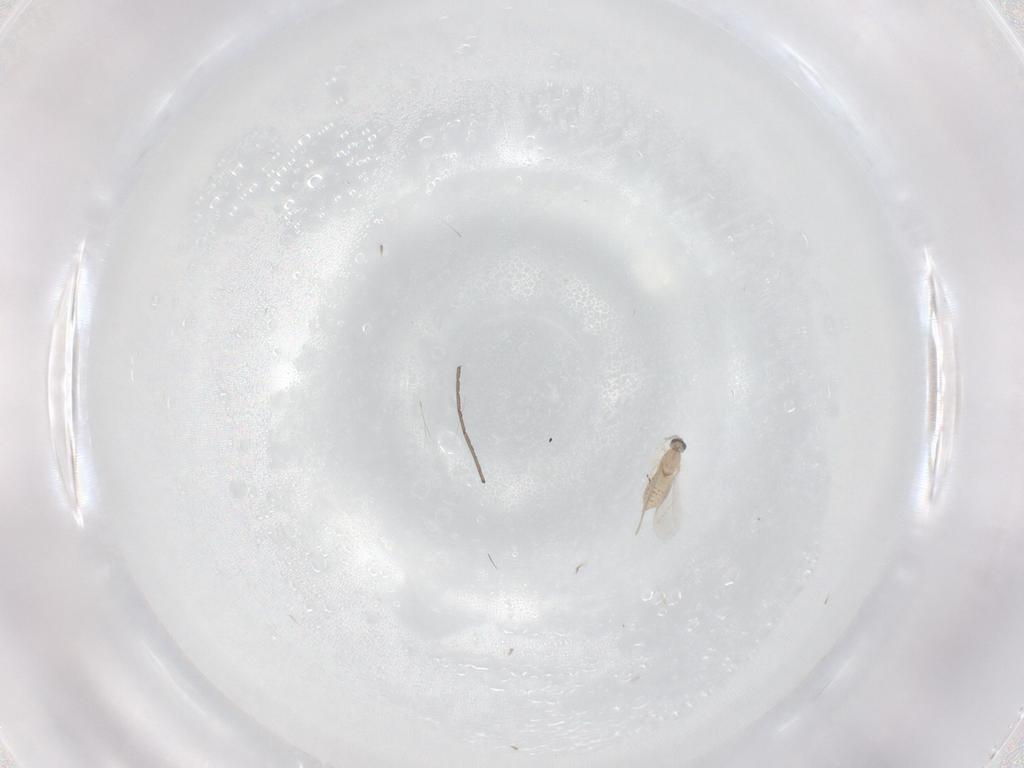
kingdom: Animalia
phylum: Arthropoda
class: Insecta
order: Diptera
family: Cecidomyiidae
